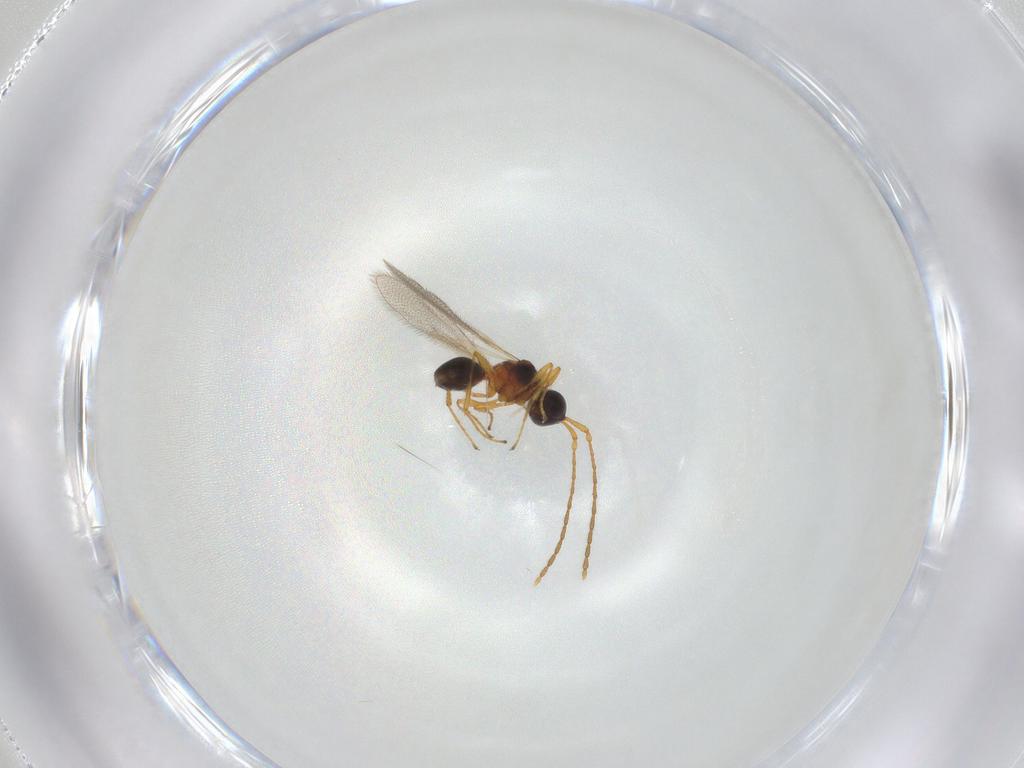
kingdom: Animalia
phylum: Arthropoda
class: Insecta
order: Hymenoptera
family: Diapriidae
